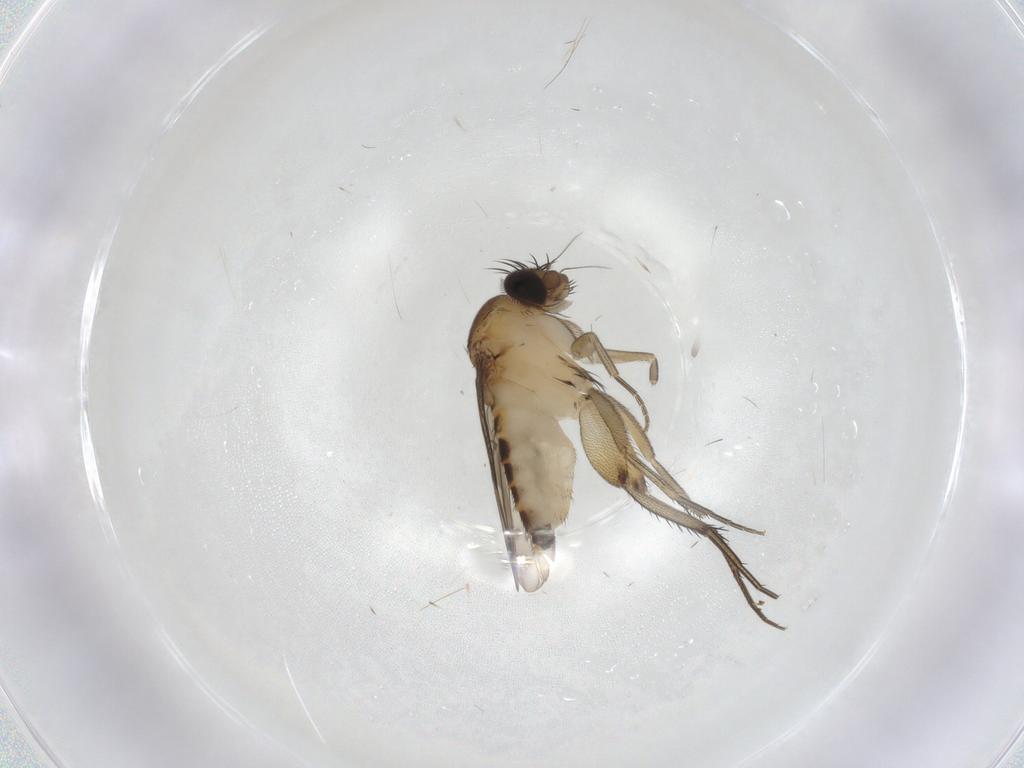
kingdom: Animalia
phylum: Arthropoda
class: Insecta
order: Diptera
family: Phoridae
